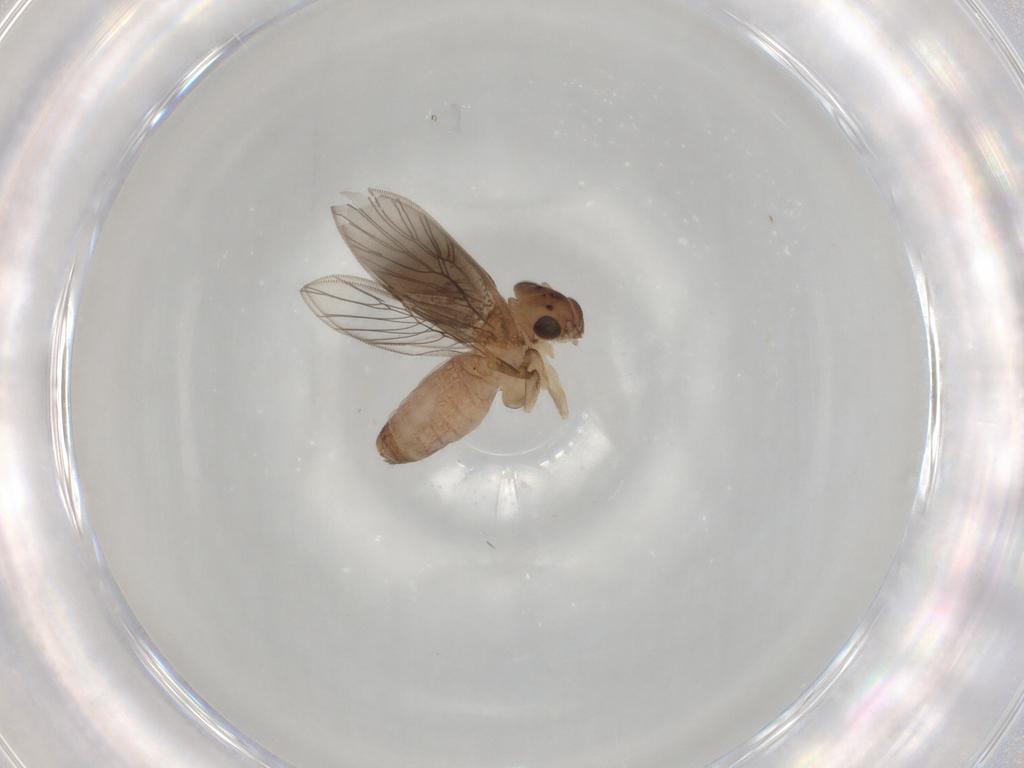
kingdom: Animalia
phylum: Arthropoda
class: Insecta
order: Psocodea
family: Lepidopsocidae
